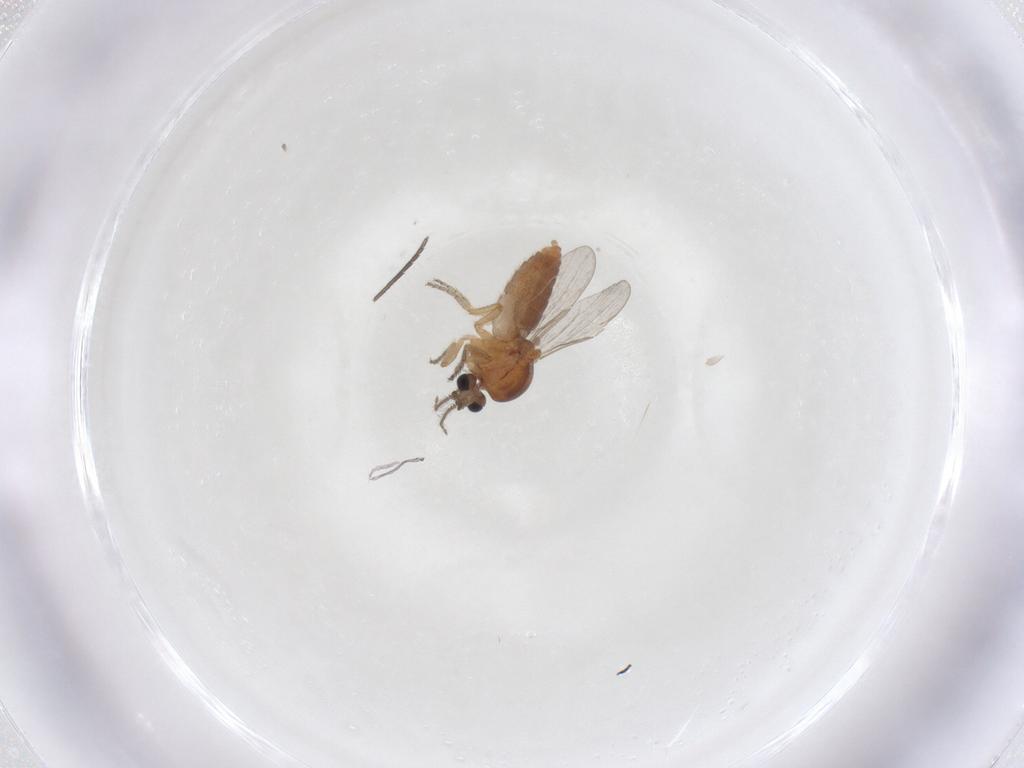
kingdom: Animalia
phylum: Arthropoda
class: Insecta
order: Diptera
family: Ceratopogonidae
